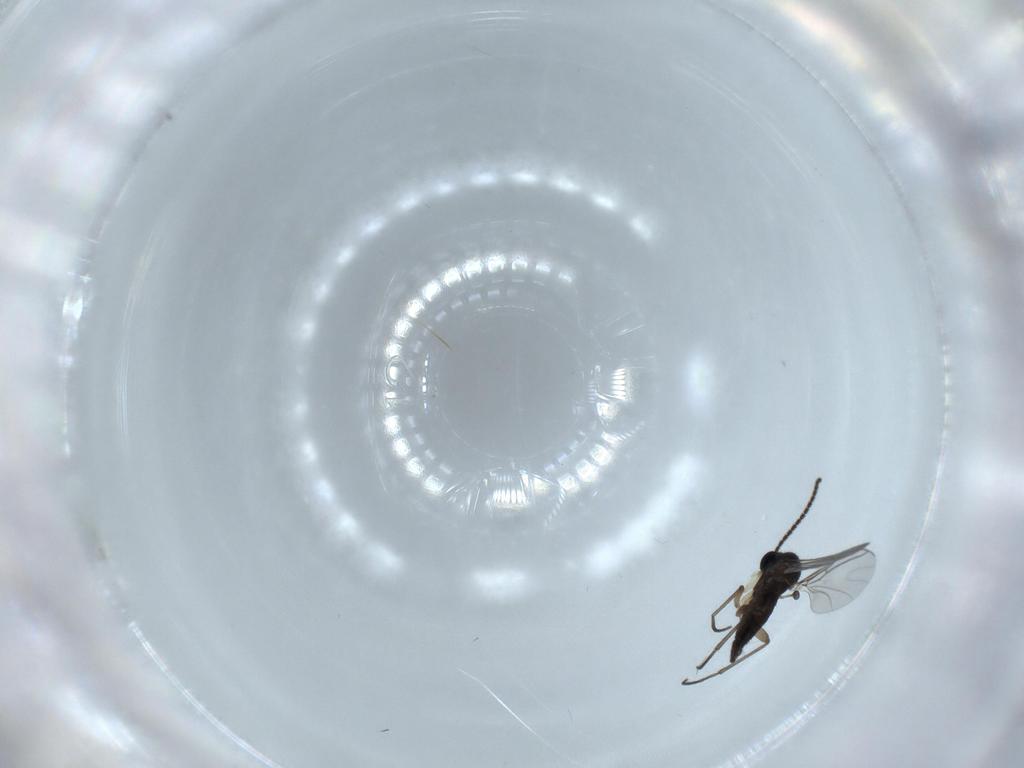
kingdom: Animalia
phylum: Arthropoda
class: Insecta
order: Diptera
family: Sciaridae
